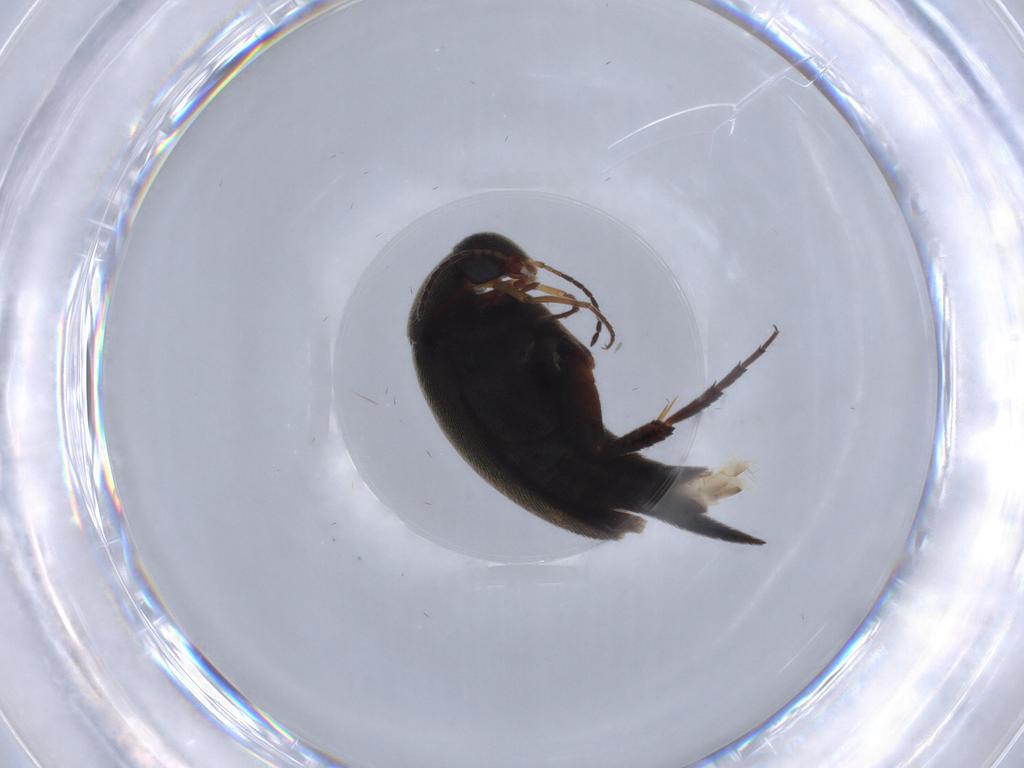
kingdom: Animalia
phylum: Arthropoda
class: Insecta
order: Coleoptera
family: Mordellidae
